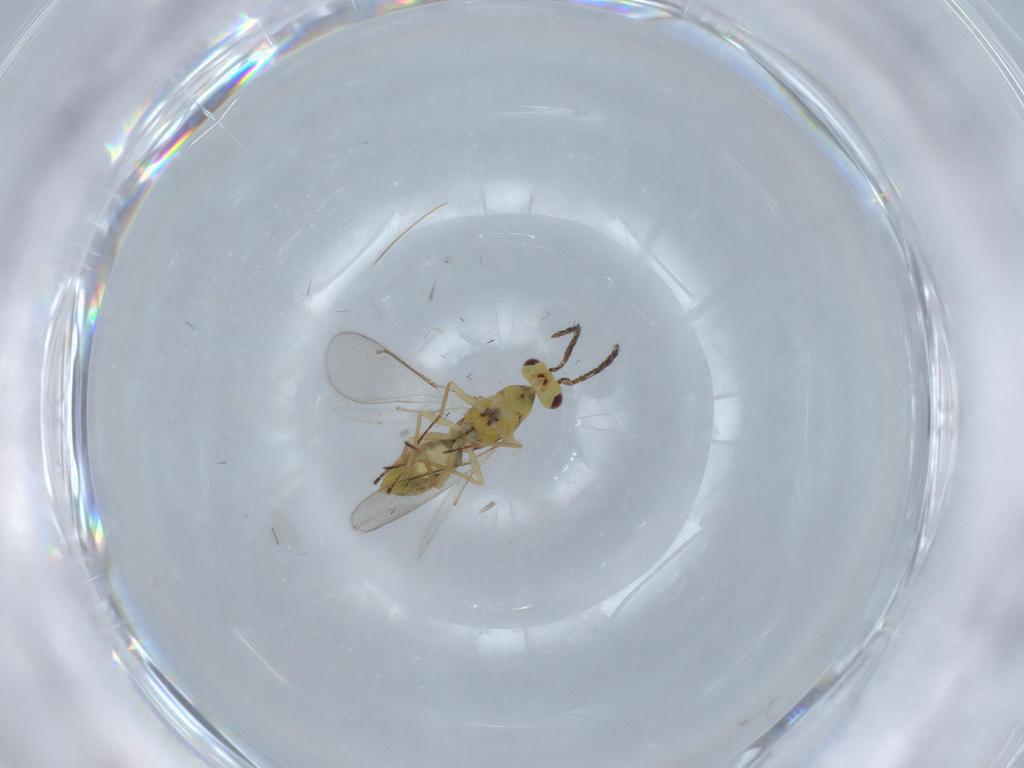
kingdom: Animalia
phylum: Arthropoda
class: Insecta
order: Hymenoptera
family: Eulophidae
